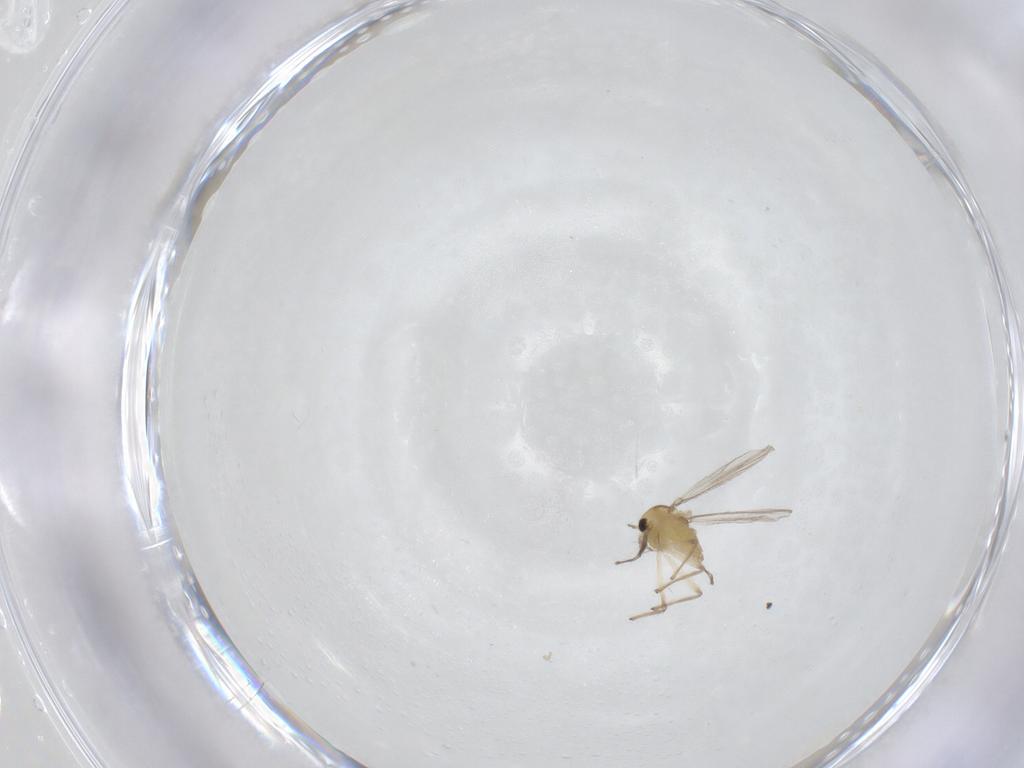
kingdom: Animalia
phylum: Arthropoda
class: Insecta
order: Diptera
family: Chironomidae
